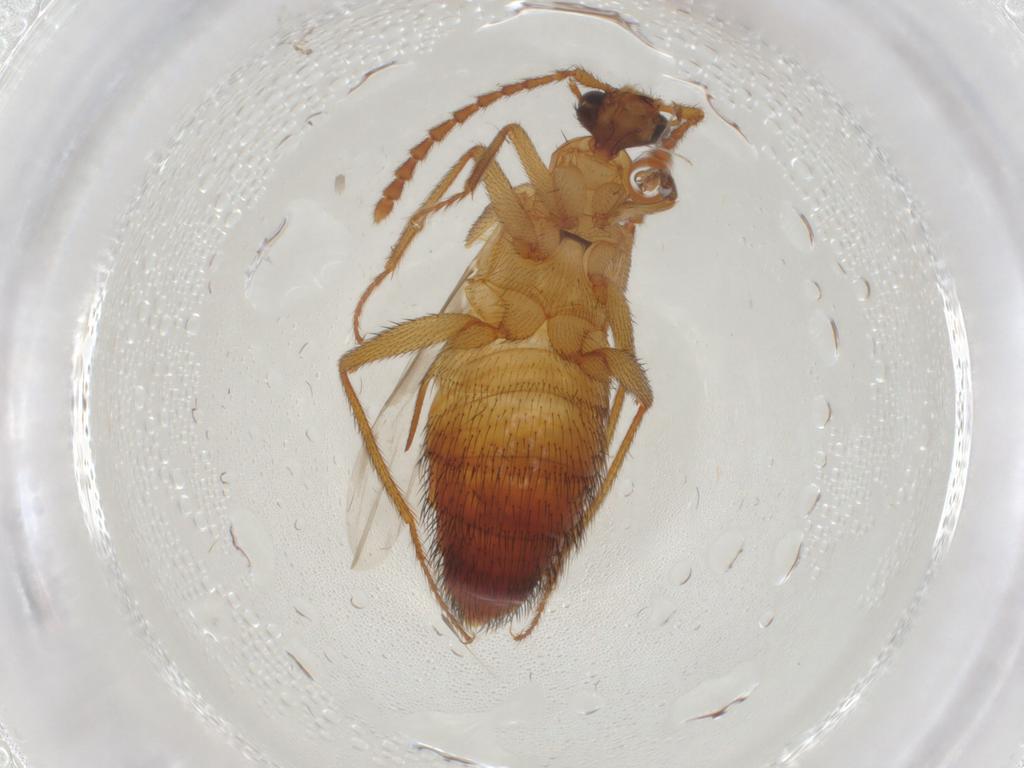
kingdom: Animalia
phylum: Arthropoda
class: Insecta
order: Coleoptera
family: Staphylinidae
